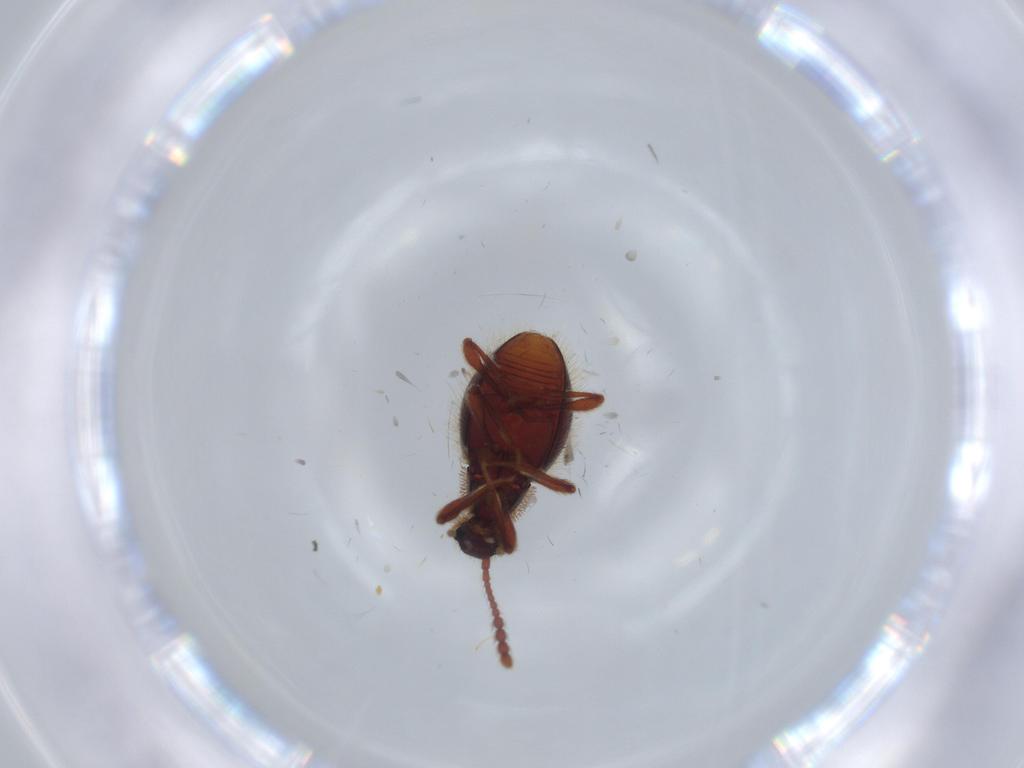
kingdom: Animalia
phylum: Arthropoda
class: Insecta
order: Coleoptera
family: Staphylinidae
